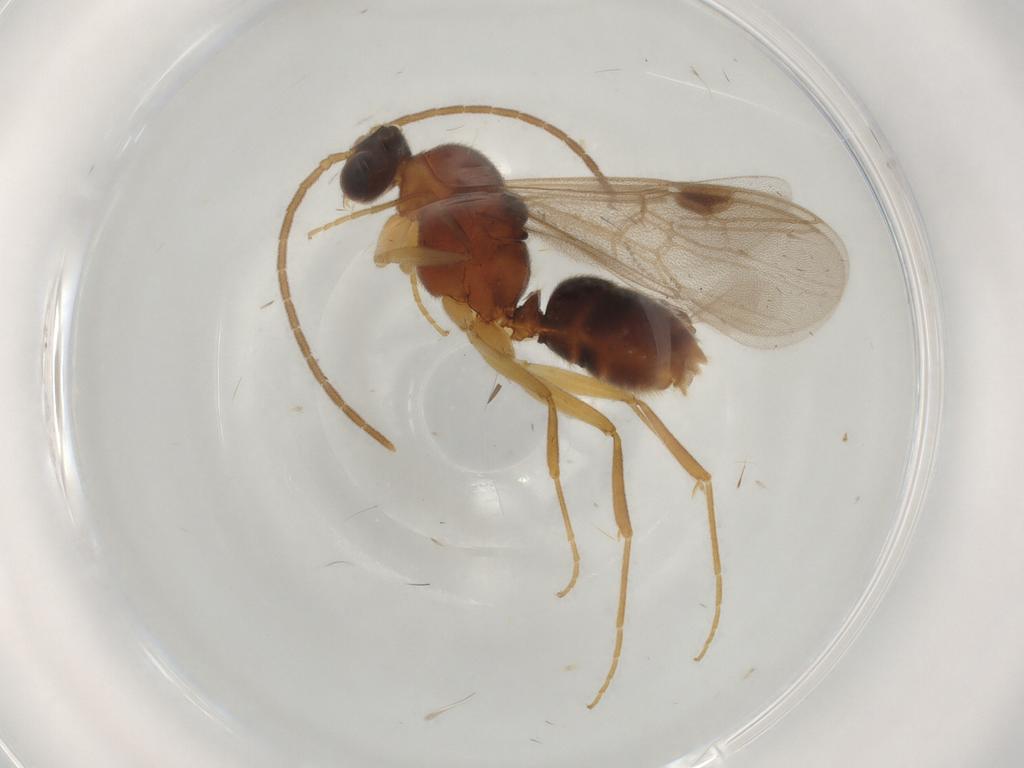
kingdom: Animalia
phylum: Arthropoda
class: Insecta
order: Hymenoptera
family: Formicidae
